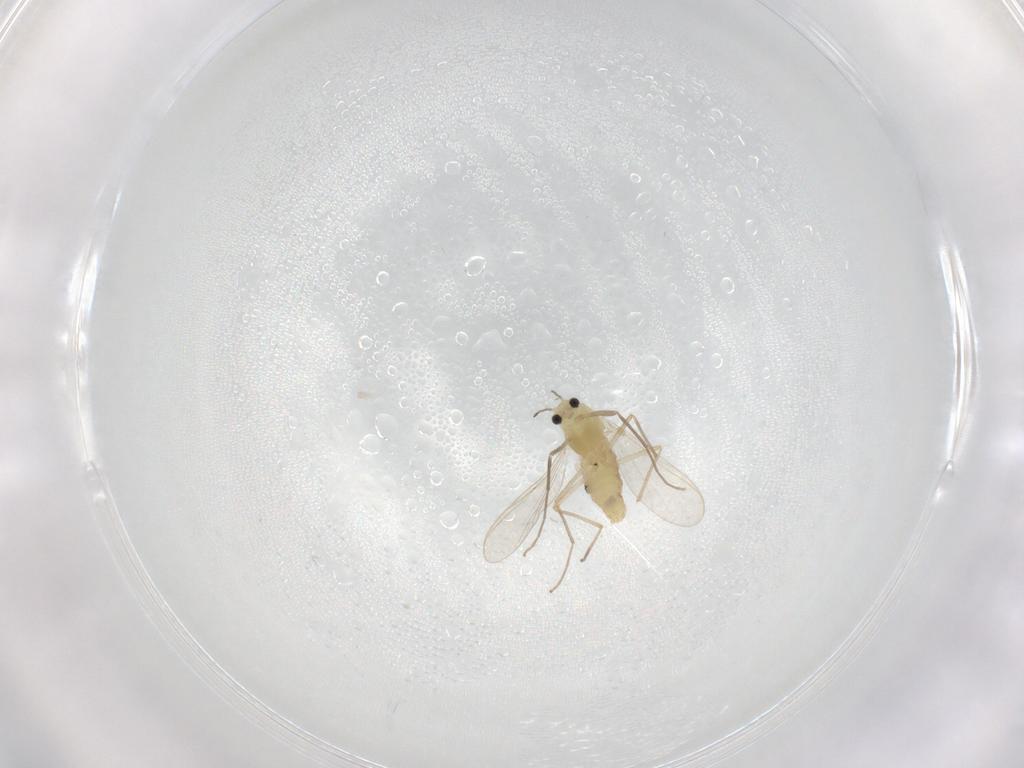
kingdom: Animalia
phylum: Arthropoda
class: Insecta
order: Diptera
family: Chironomidae
